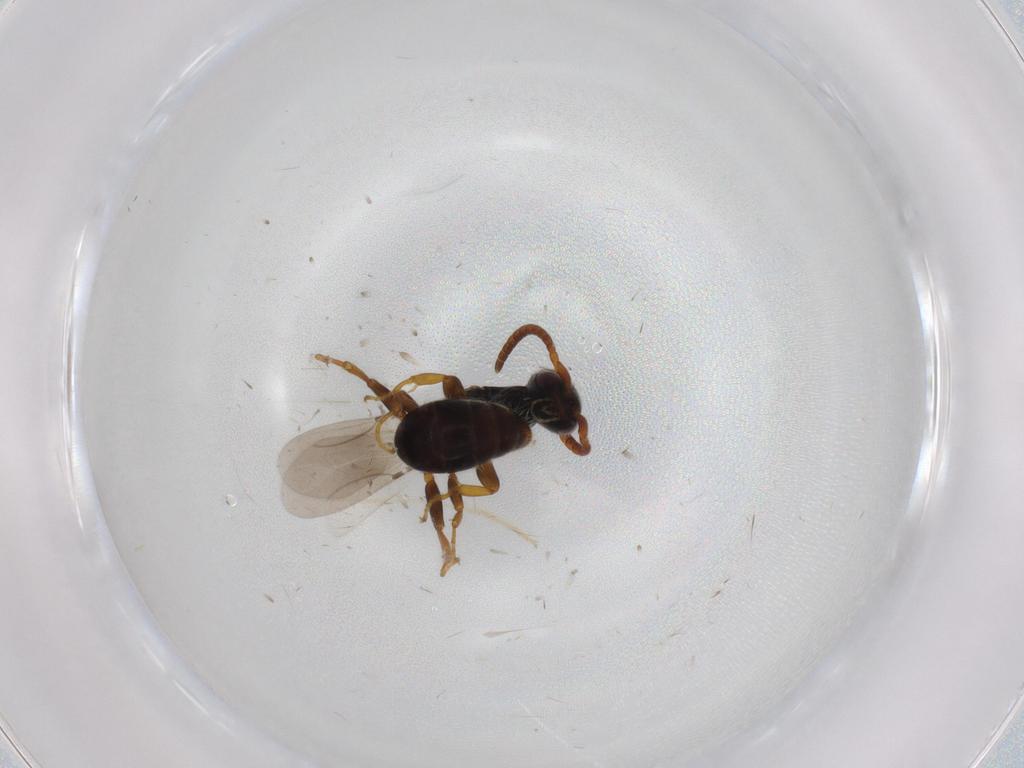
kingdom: Animalia
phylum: Arthropoda
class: Insecta
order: Hymenoptera
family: Bethylidae
